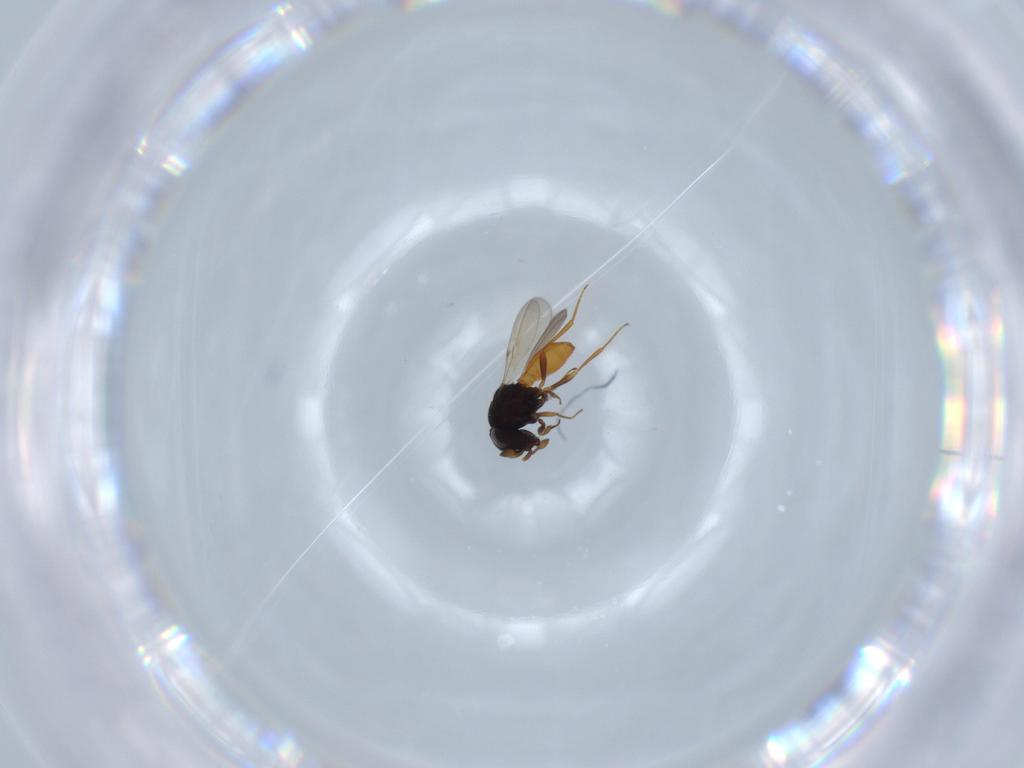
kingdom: Animalia
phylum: Arthropoda
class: Insecta
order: Hymenoptera
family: Scelionidae
